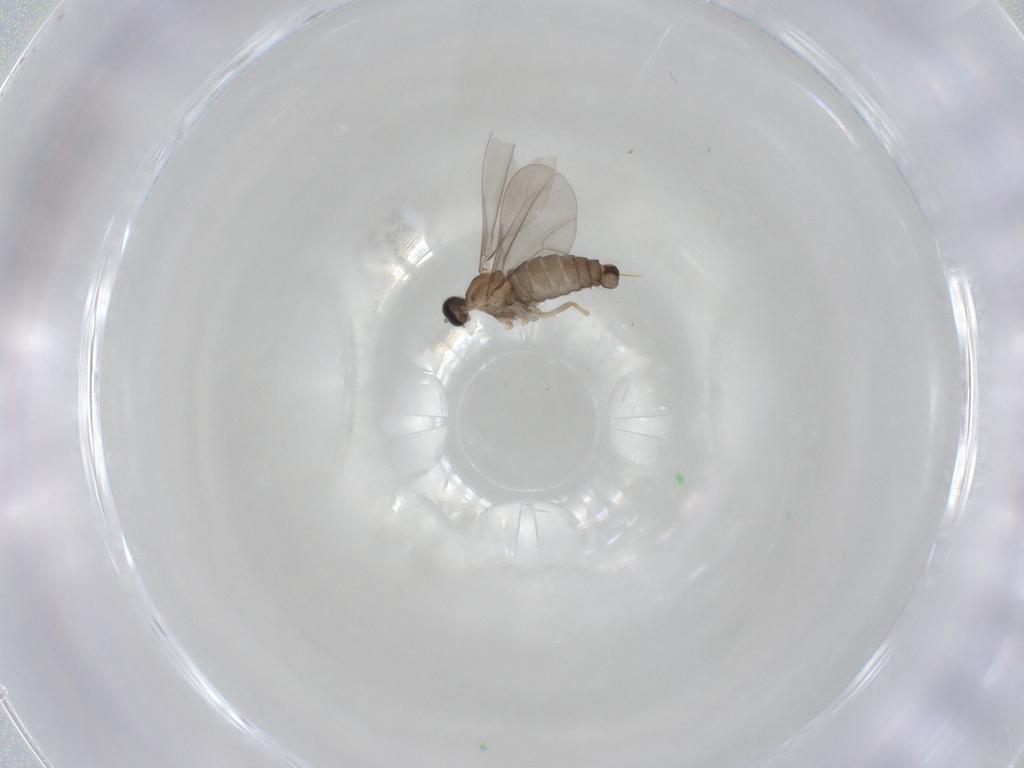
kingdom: Animalia
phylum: Arthropoda
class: Insecta
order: Diptera
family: Cecidomyiidae
